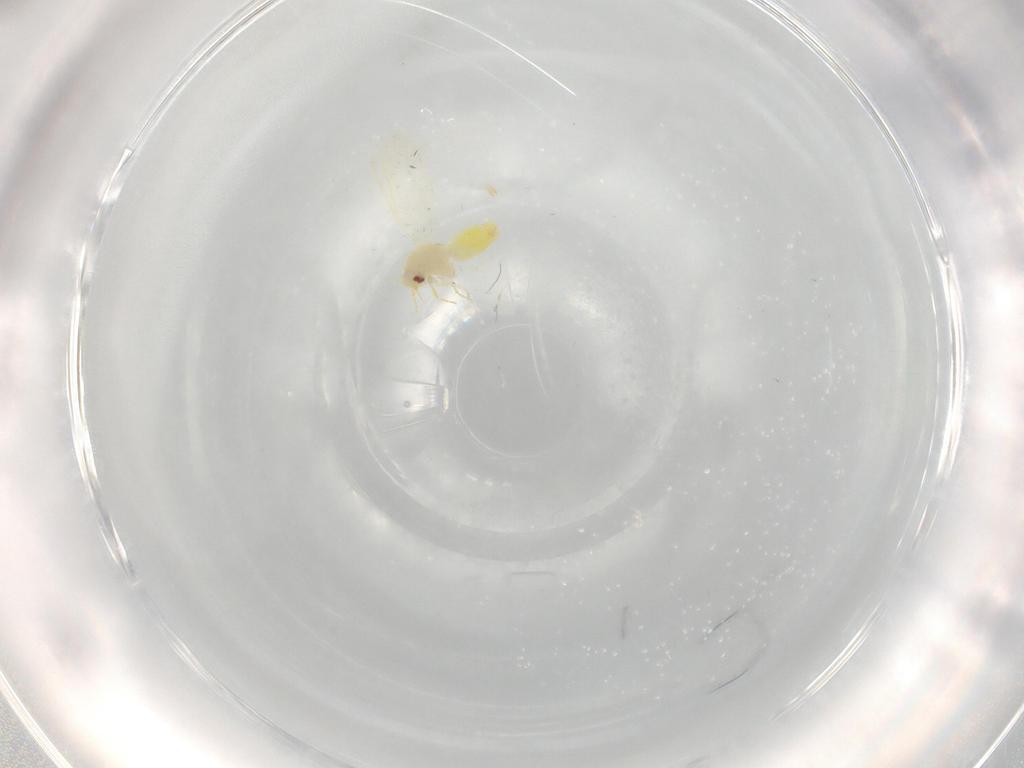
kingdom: Animalia
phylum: Arthropoda
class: Insecta
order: Hemiptera
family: Aleyrodidae
